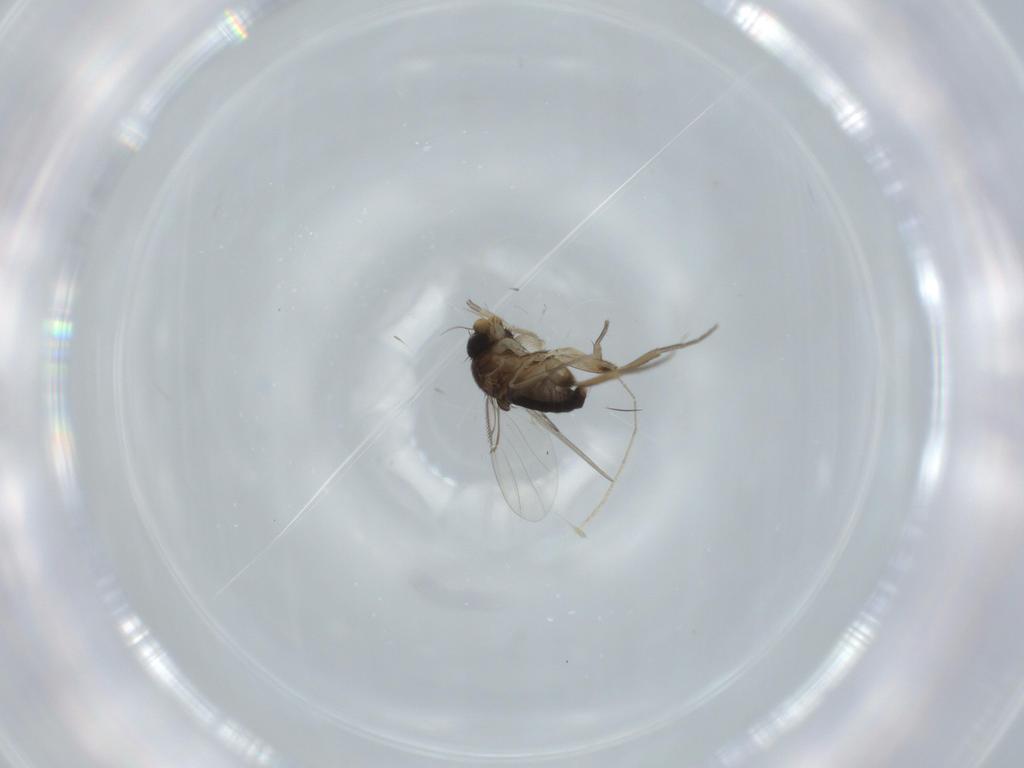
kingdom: Animalia
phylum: Arthropoda
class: Insecta
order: Diptera
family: Phoridae
